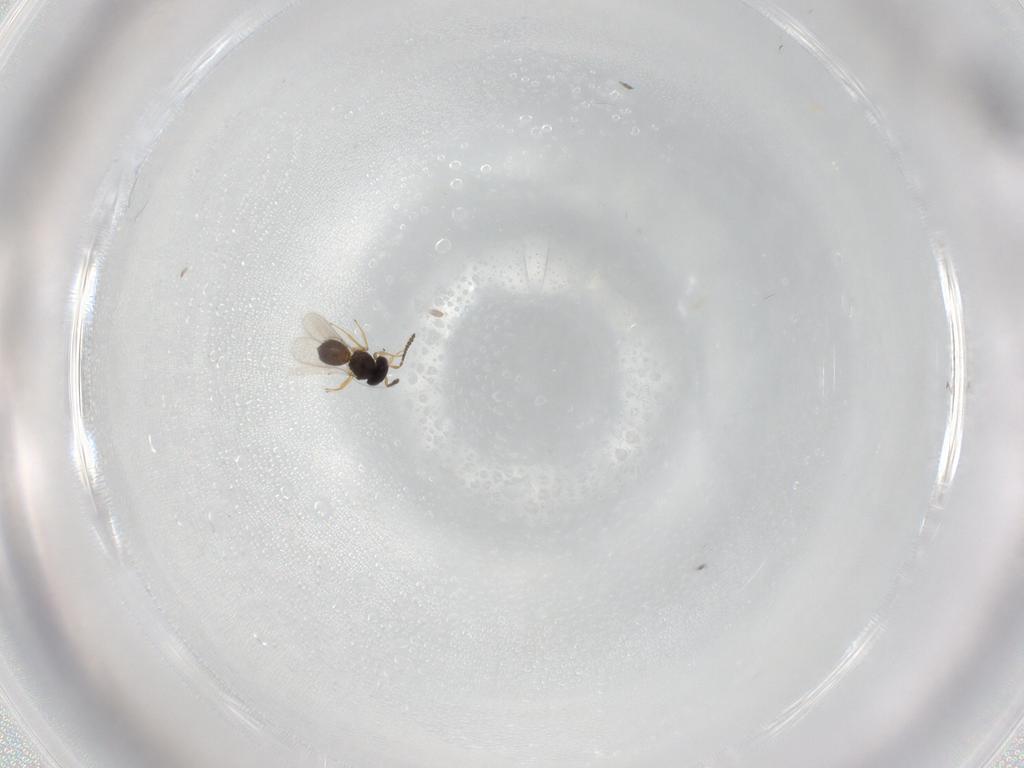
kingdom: Animalia
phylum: Arthropoda
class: Insecta
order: Hymenoptera
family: Scelionidae
